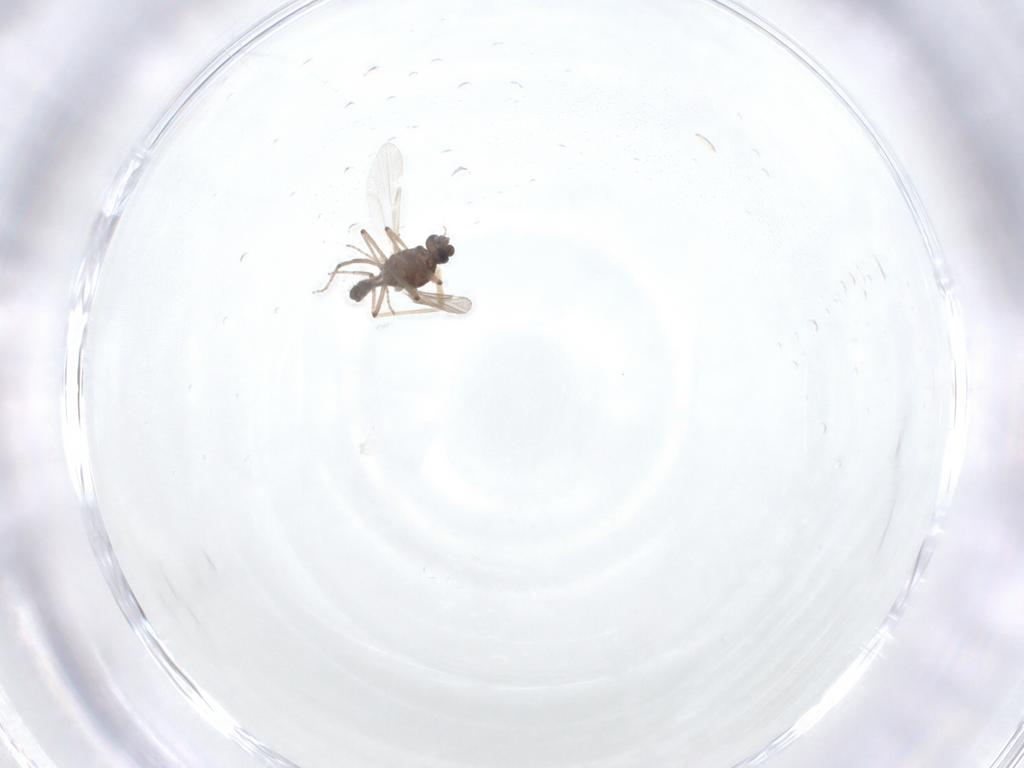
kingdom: Animalia
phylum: Arthropoda
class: Insecta
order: Diptera
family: Ceratopogonidae
